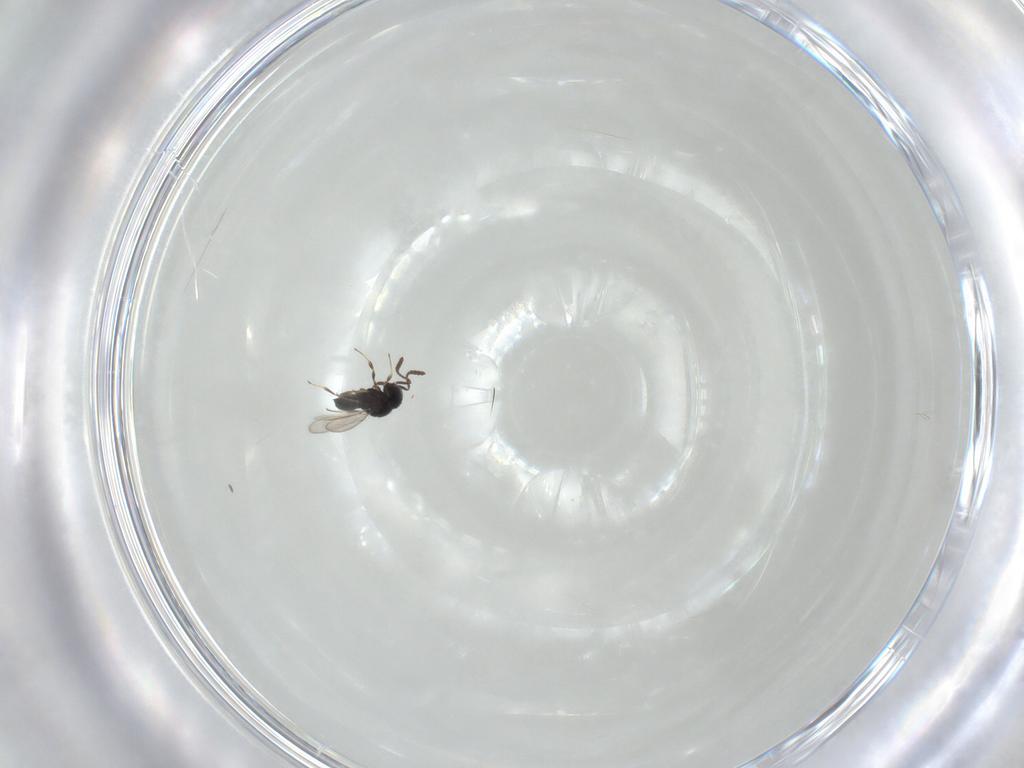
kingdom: Animalia
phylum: Arthropoda
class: Insecta
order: Hymenoptera
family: Scelionidae
